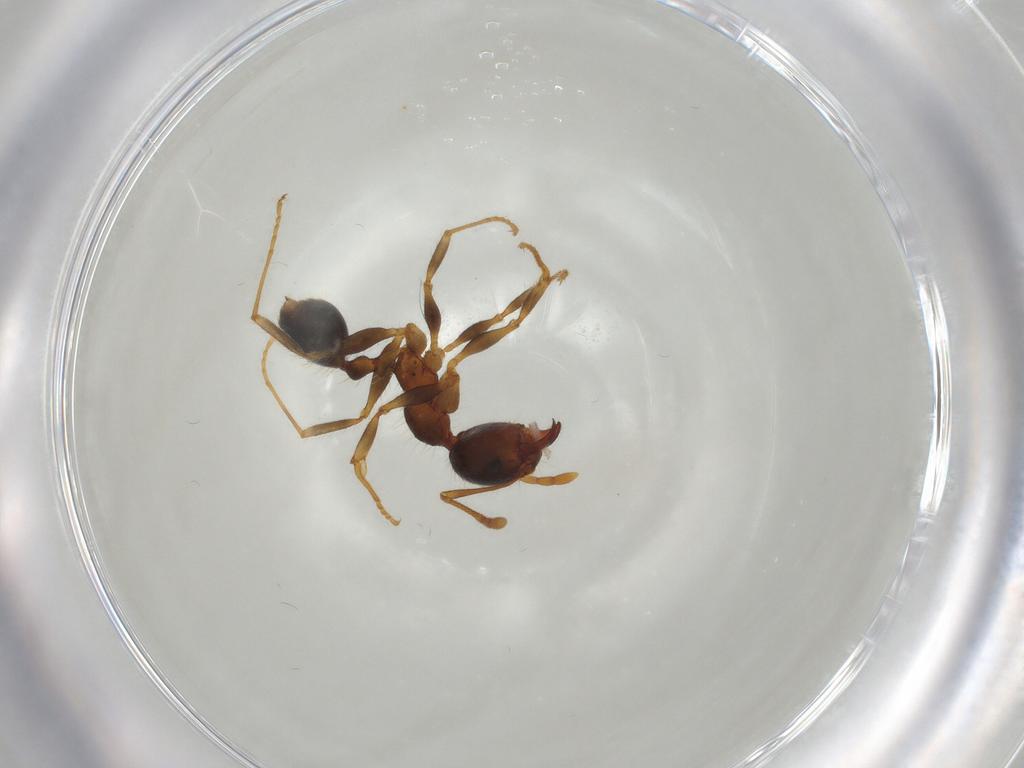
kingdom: Animalia
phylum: Arthropoda
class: Insecta
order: Hymenoptera
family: Formicidae
